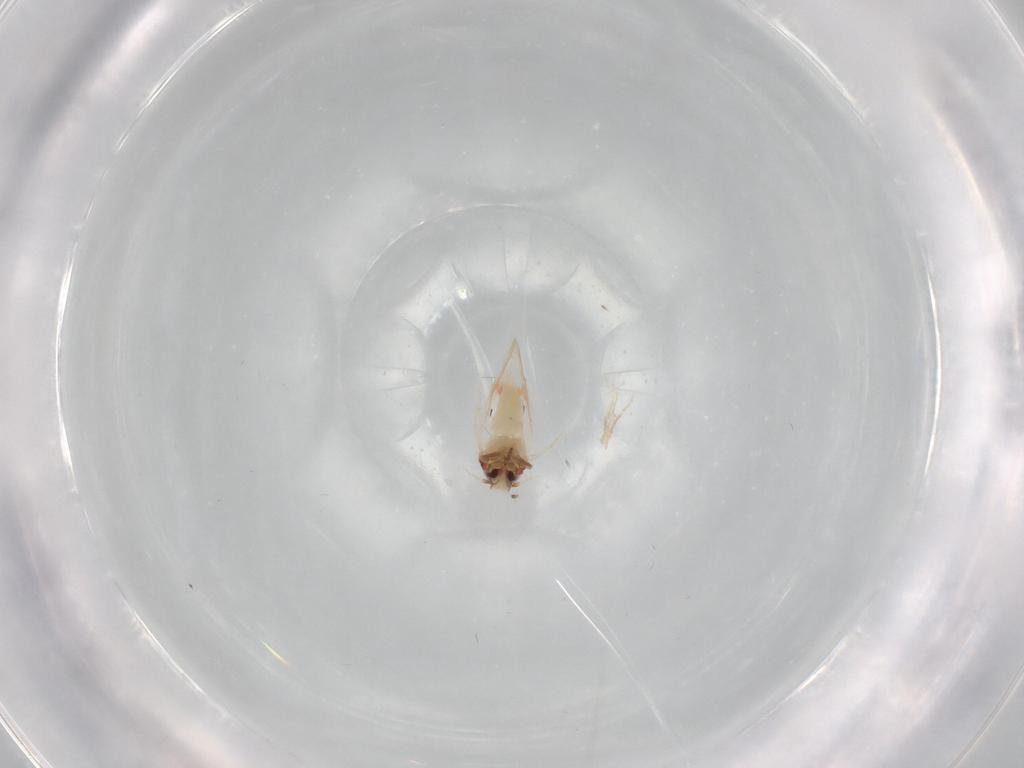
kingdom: Animalia
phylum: Arthropoda
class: Insecta
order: Hemiptera
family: Aleyrodidae
